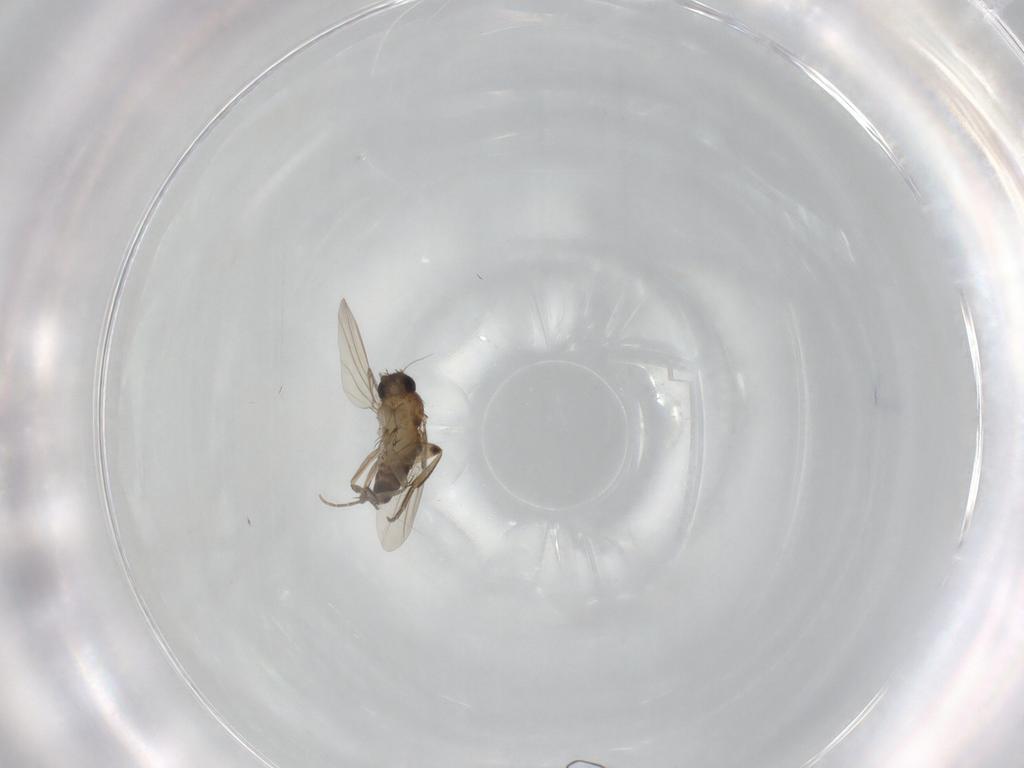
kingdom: Animalia
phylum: Arthropoda
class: Insecta
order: Diptera
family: Phoridae
